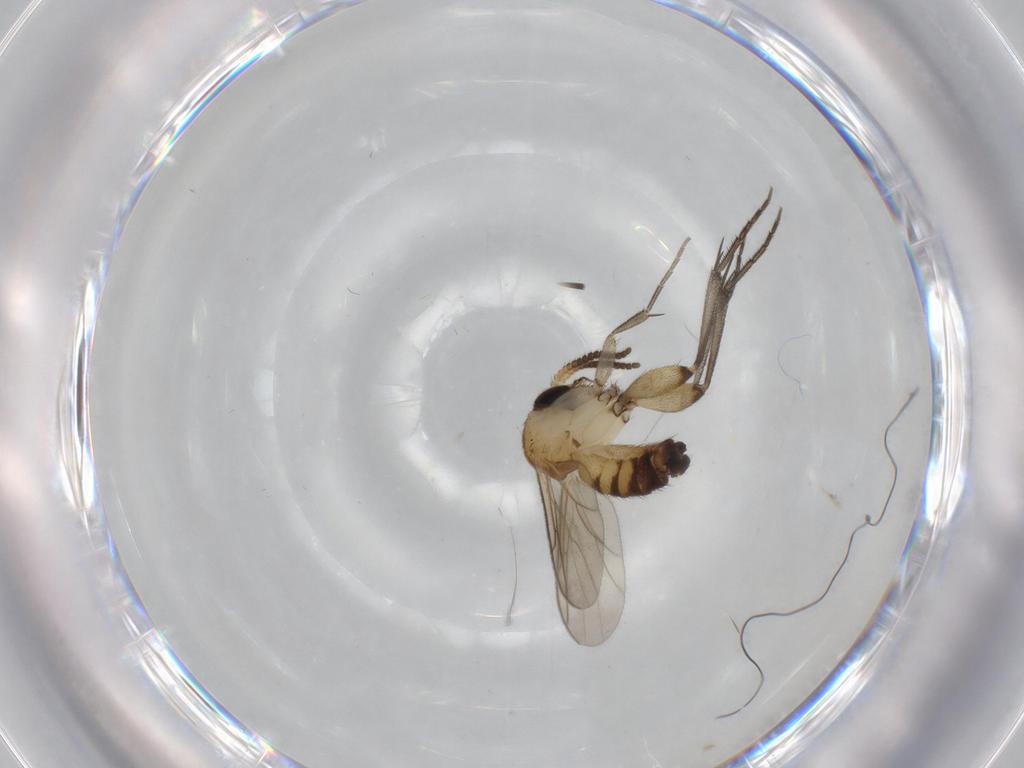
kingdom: Animalia
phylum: Arthropoda
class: Insecta
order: Diptera
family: Mycetophilidae
